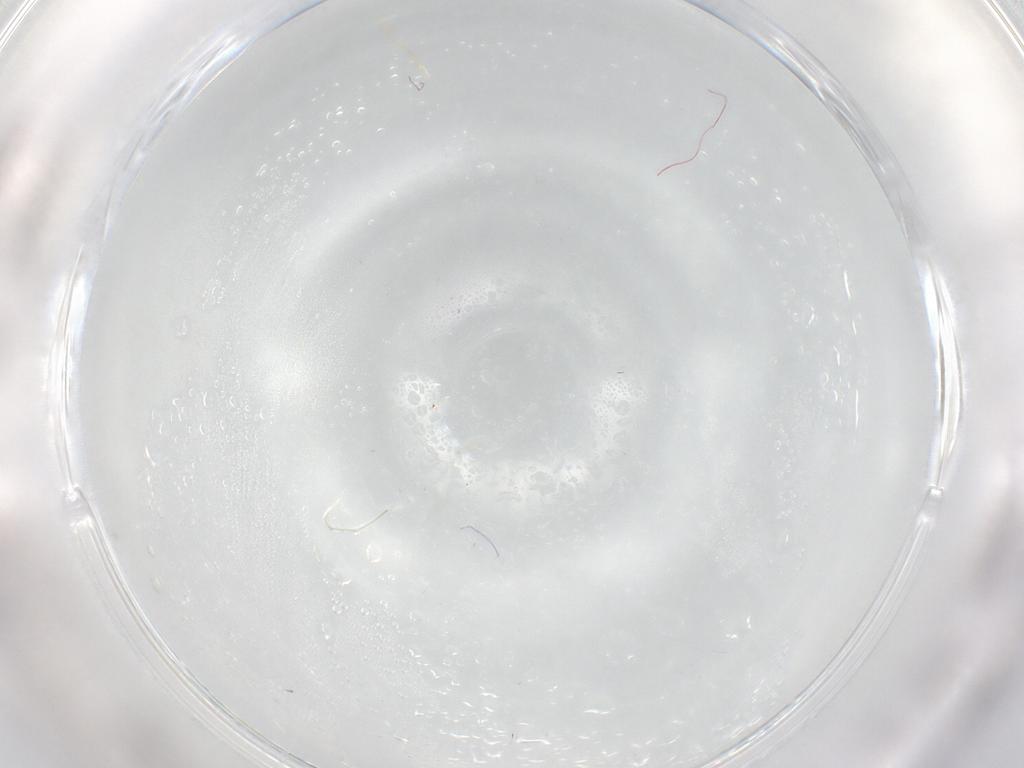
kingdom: Animalia
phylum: Arthropoda
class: Insecta
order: Diptera
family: Cecidomyiidae
